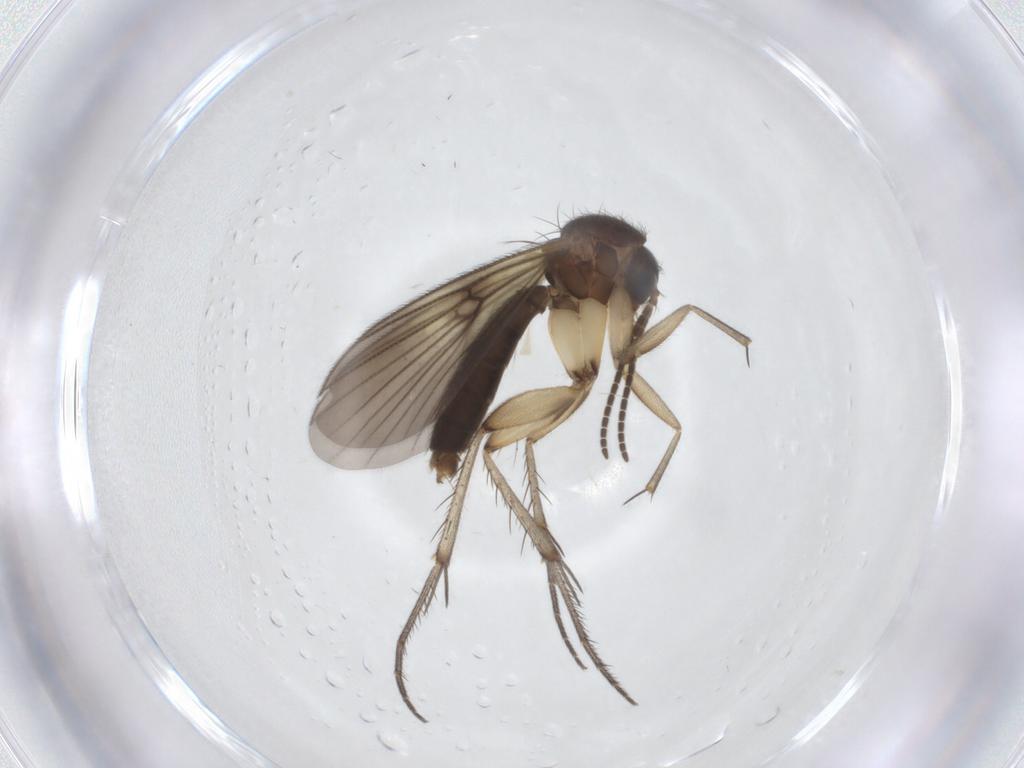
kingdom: Animalia
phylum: Arthropoda
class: Insecta
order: Diptera
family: Mycetophilidae
